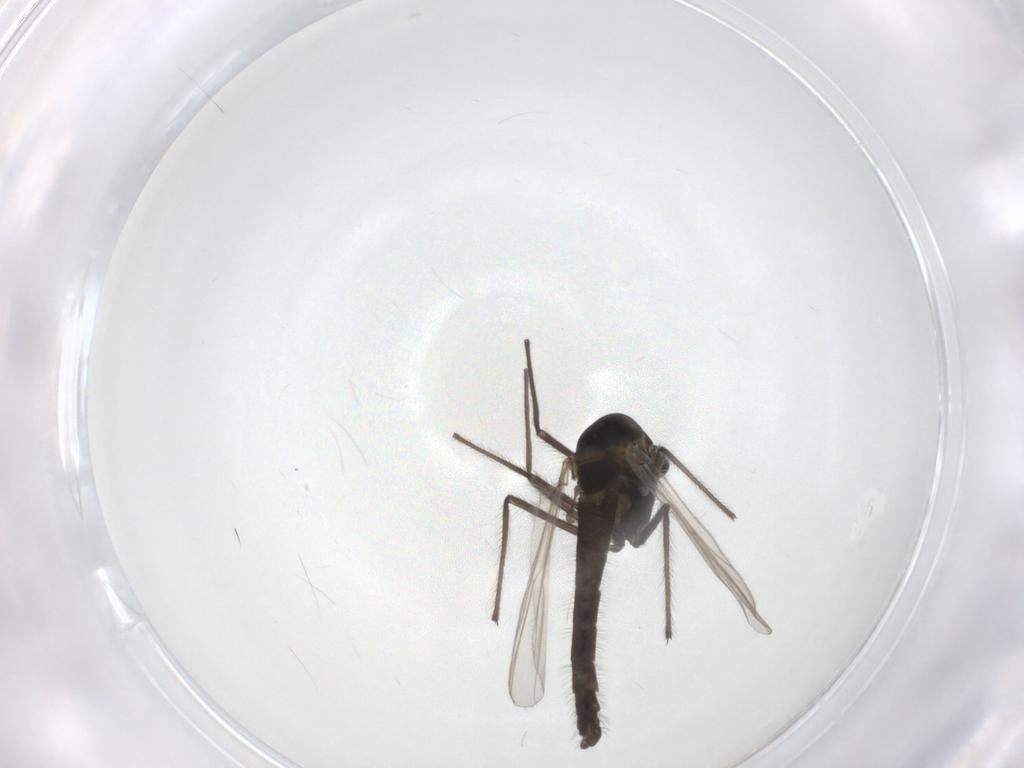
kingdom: Animalia
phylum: Arthropoda
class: Insecta
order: Diptera
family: Chironomidae
